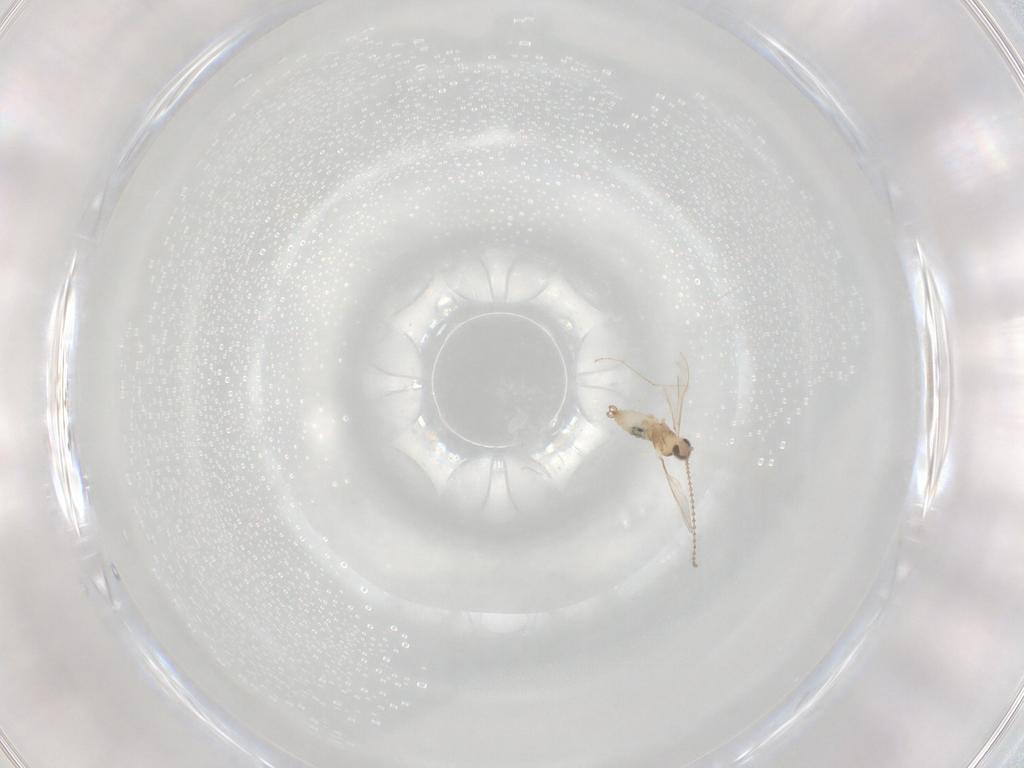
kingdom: Animalia
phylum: Arthropoda
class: Insecta
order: Diptera
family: Cecidomyiidae
